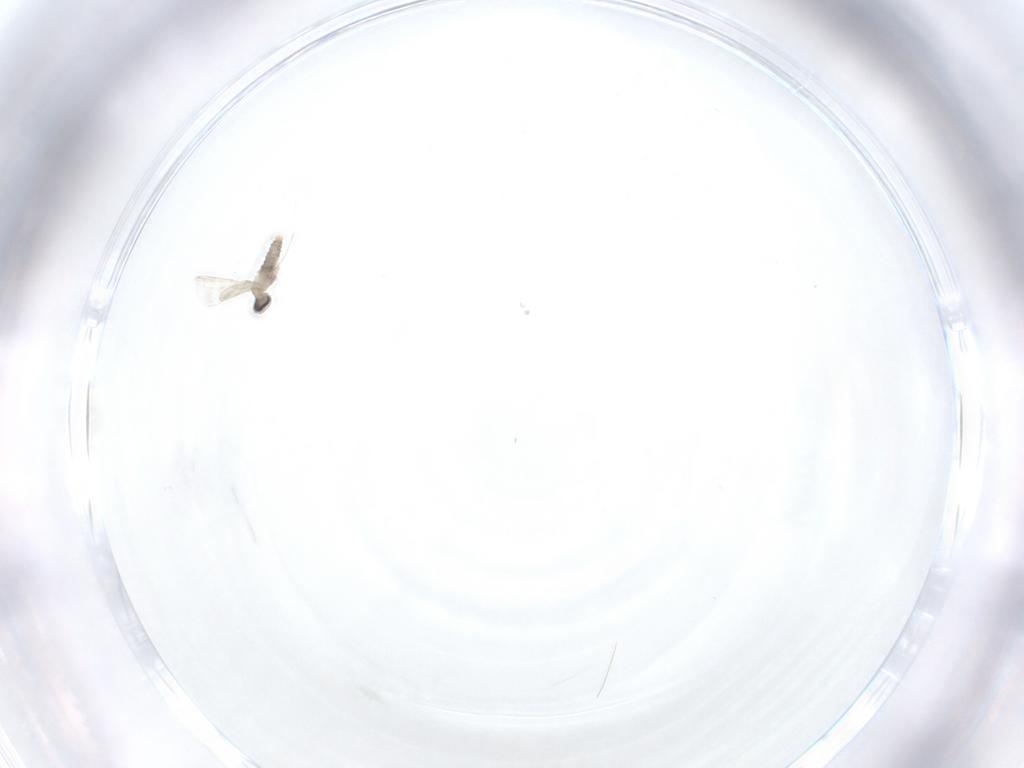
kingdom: Animalia
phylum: Arthropoda
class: Insecta
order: Diptera
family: Cecidomyiidae
